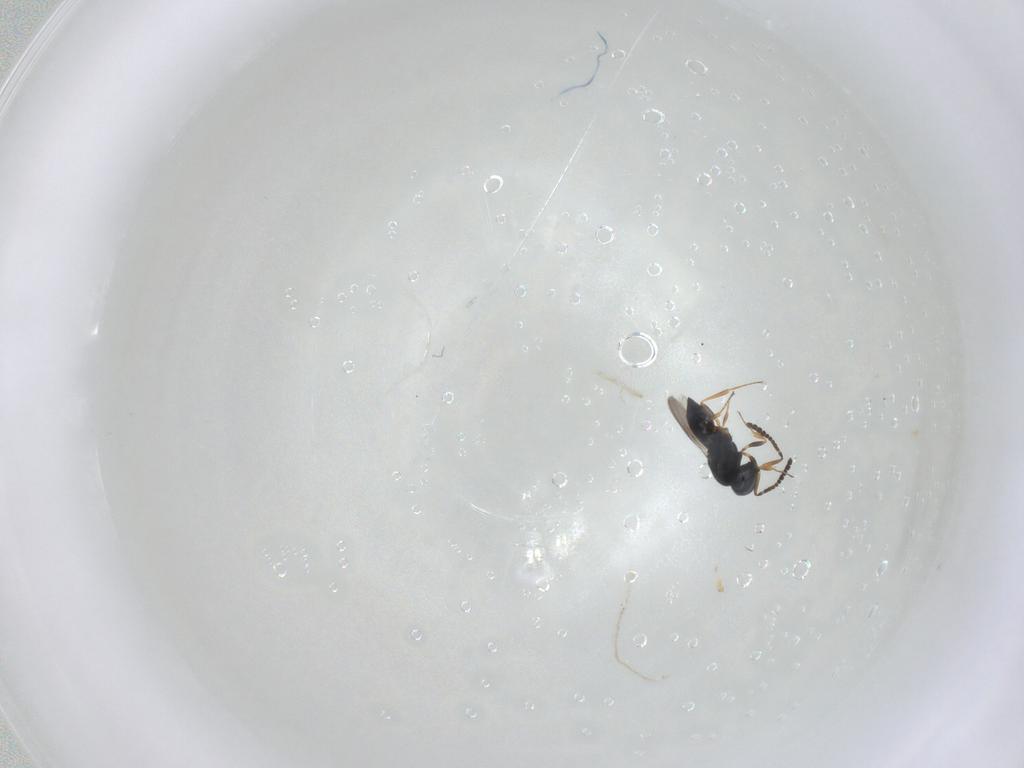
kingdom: Animalia
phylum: Arthropoda
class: Insecta
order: Hymenoptera
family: Scelionidae
